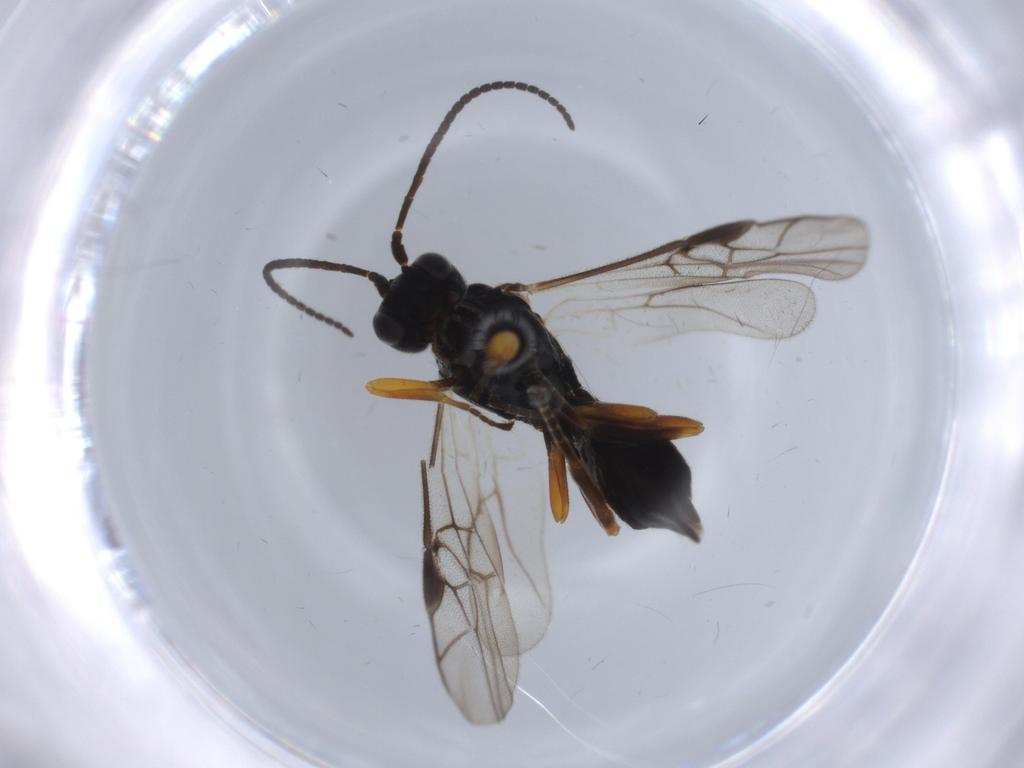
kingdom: Animalia
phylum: Arthropoda
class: Insecta
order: Hymenoptera
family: Braconidae
